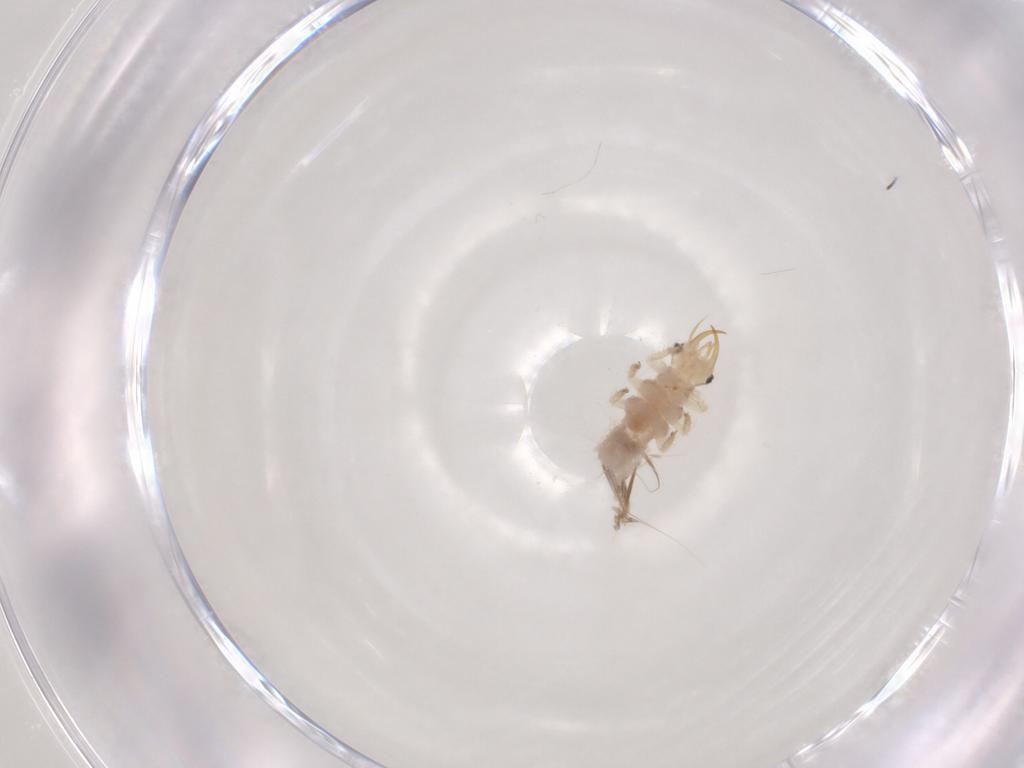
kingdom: Animalia
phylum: Arthropoda
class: Insecta
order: Neuroptera
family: Chrysopidae
